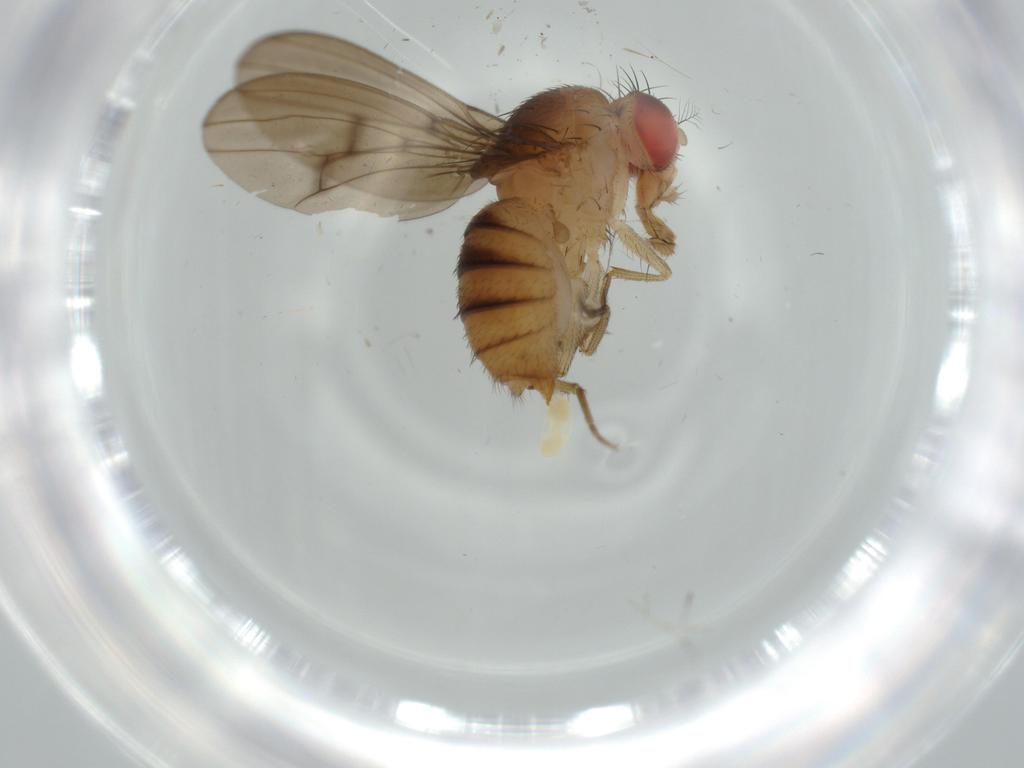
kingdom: Animalia
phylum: Arthropoda
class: Insecta
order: Diptera
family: Drosophilidae
